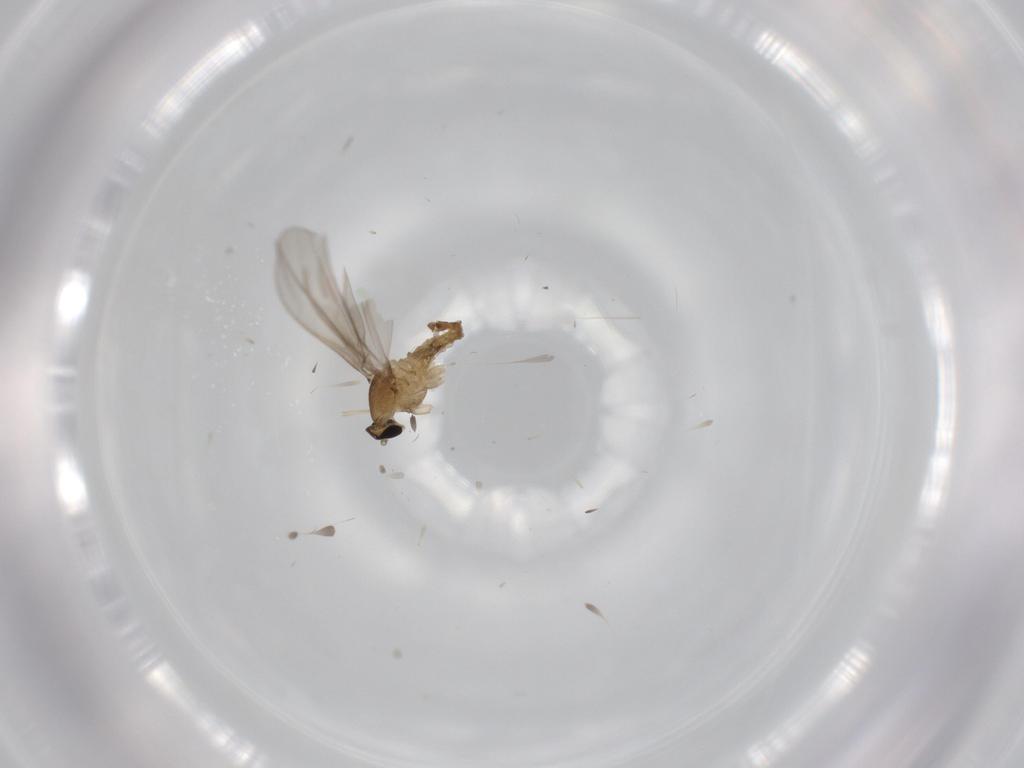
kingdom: Animalia
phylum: Arthropoda
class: Insecta
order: Diptera
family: Cecidomyiidae
